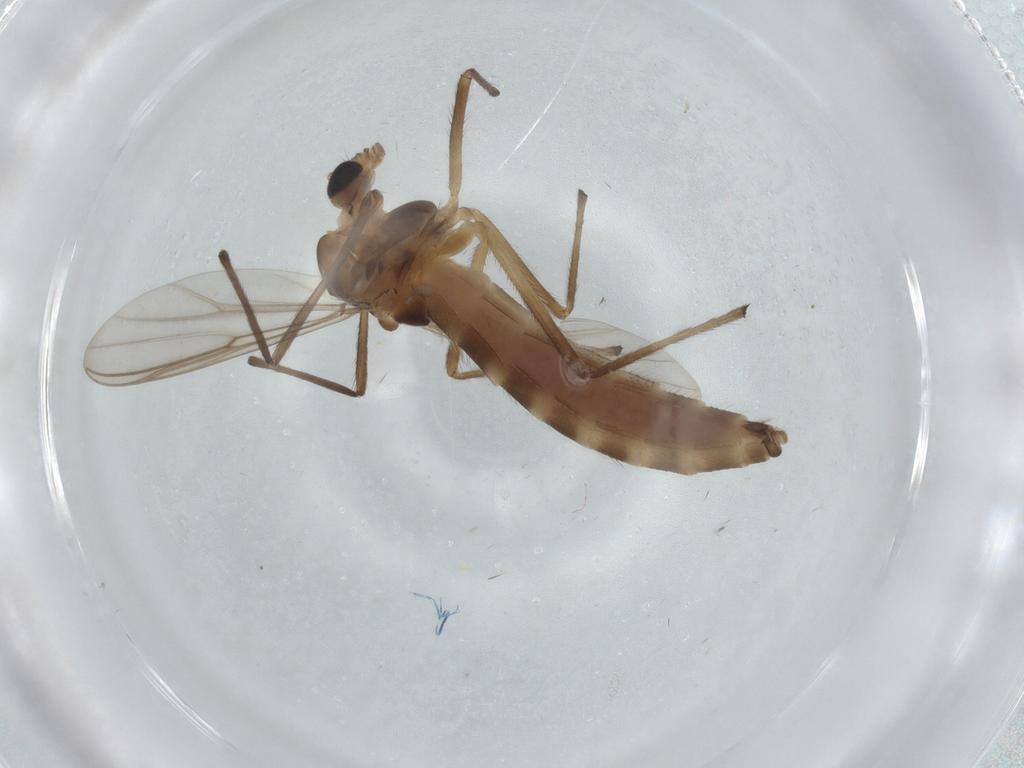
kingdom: Animalia
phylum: Arthropoda
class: Insecta
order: Diptera
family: Chironomidae
